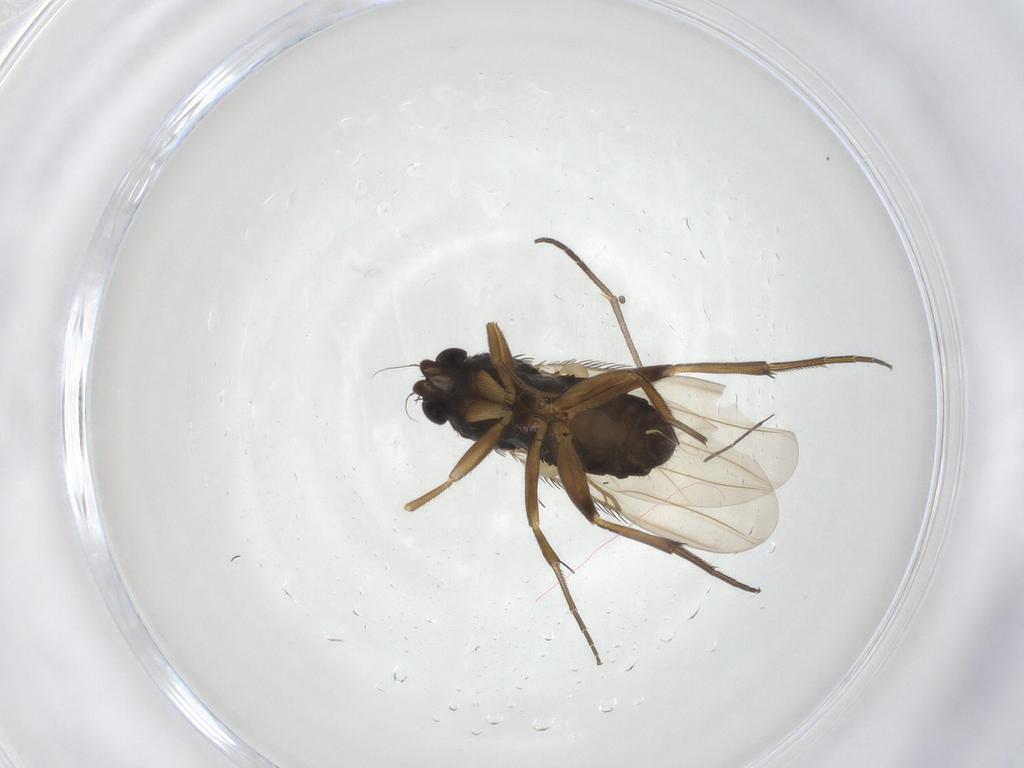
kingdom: Animalia
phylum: Arthropoda
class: Insecta
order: Diptera
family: Phoridae
